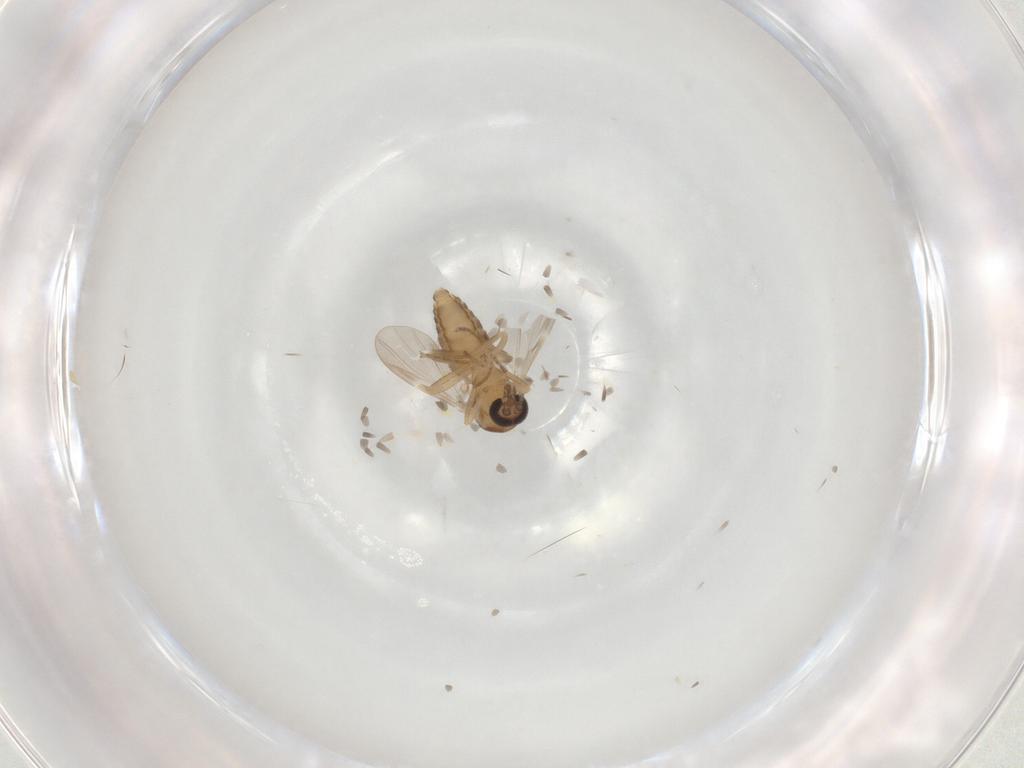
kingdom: Animalia
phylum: Arthropoda
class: Insecta
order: Diptera
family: Ceratopogonidae
